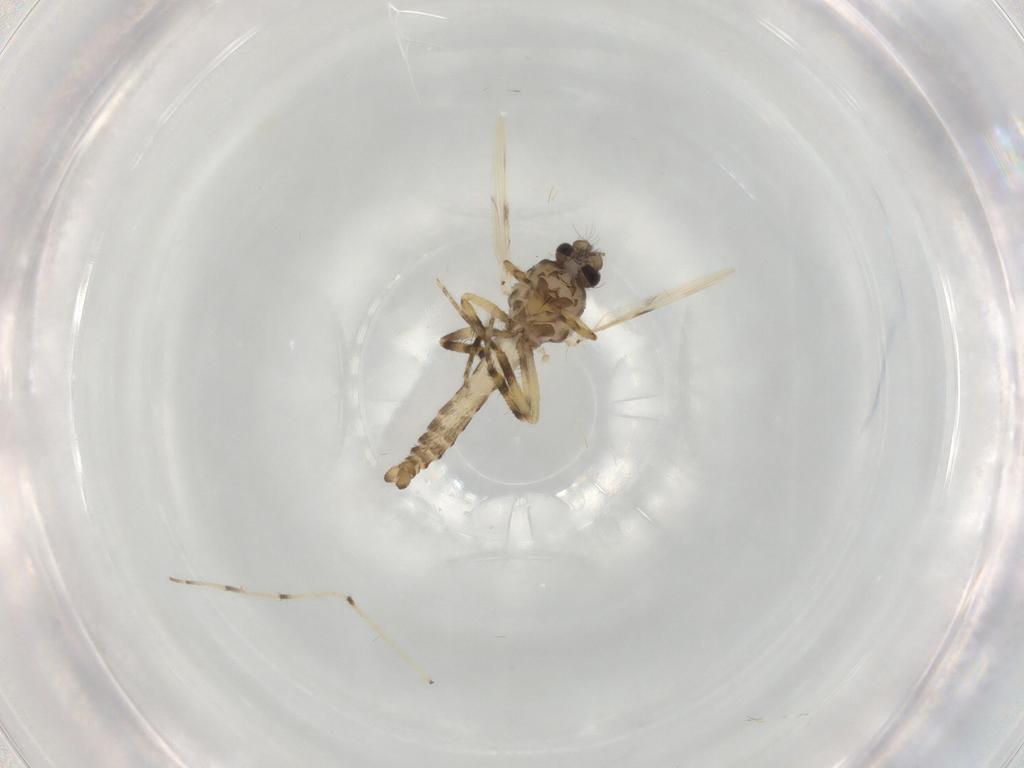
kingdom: Animalia
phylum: Arthropoda
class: Insecta
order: Diptera
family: Ceratopogonidae
